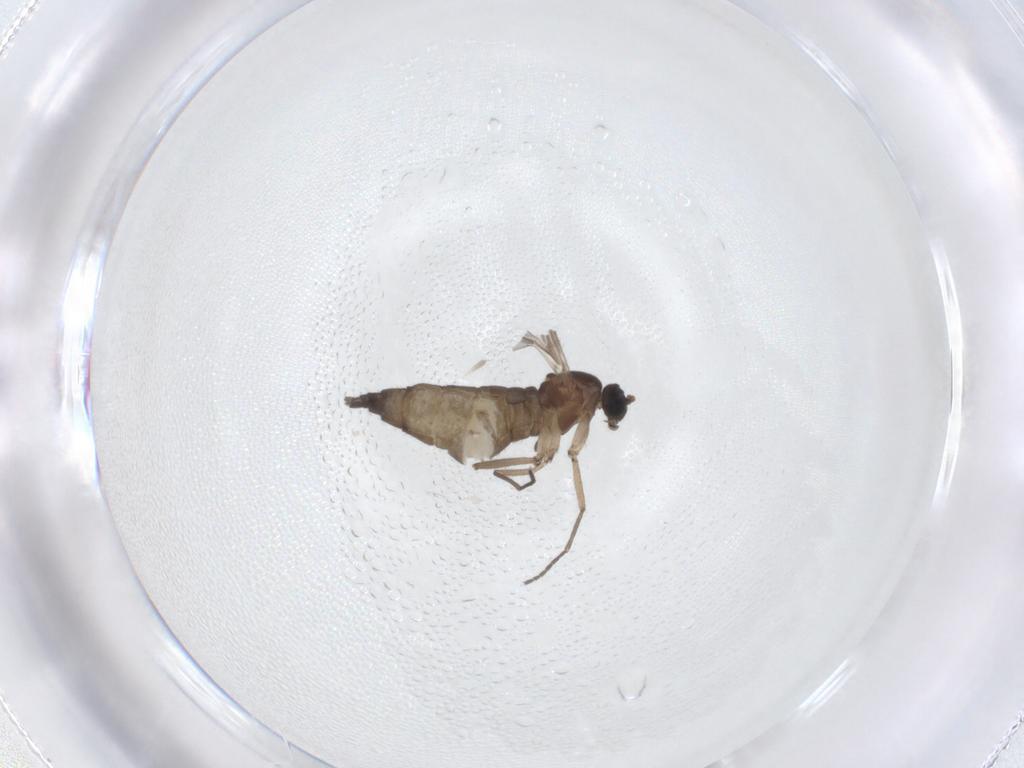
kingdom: Animalia
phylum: Arthropoda
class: Insecta
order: Diptera
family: Sciaridae
